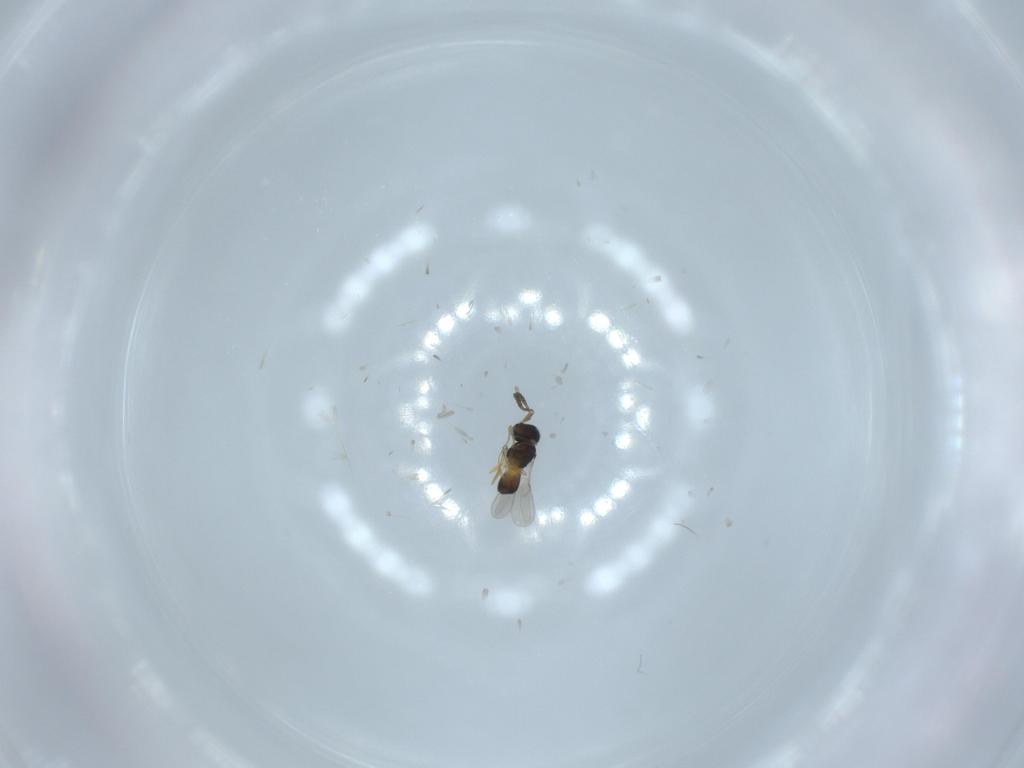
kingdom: Animalia
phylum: Arthropoda
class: Insecta
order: Hymenoptera
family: Scelionidae
